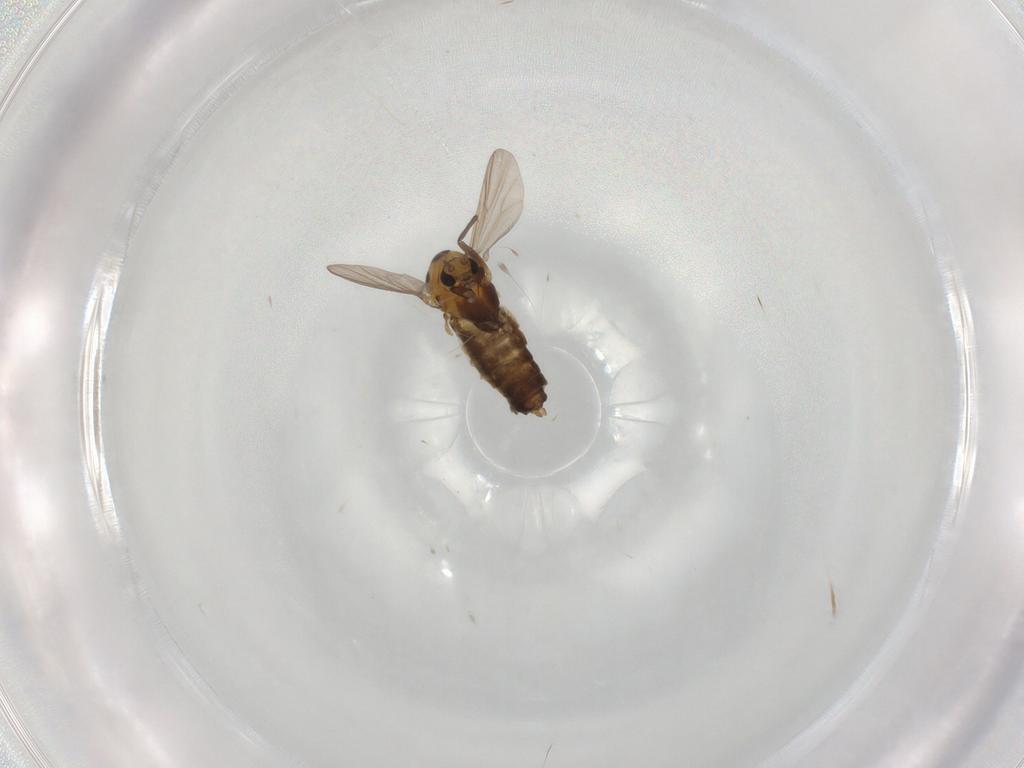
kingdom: Animalia
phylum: Arthropoda
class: Insecta
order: Diptera
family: Chironomidae
